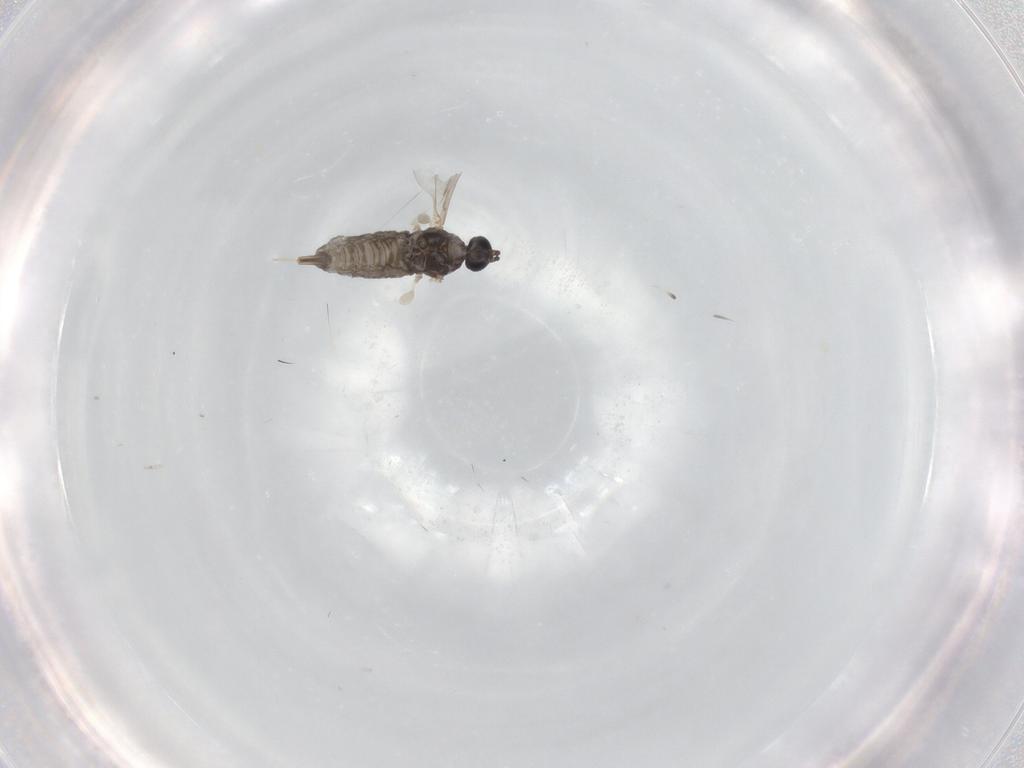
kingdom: Animalia
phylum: Arthropoda
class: Insecta
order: Diptera
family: Cecidomyiidae
